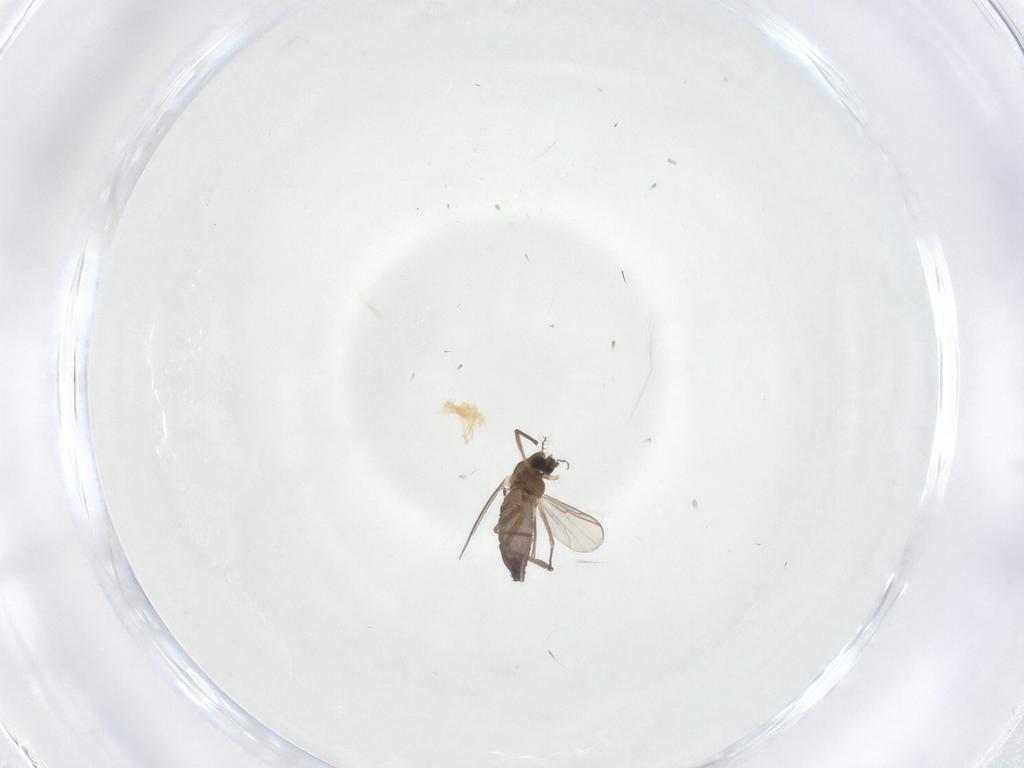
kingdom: Animalia
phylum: Arthropoda
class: Insecta
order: Diptera
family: Chironomidae
